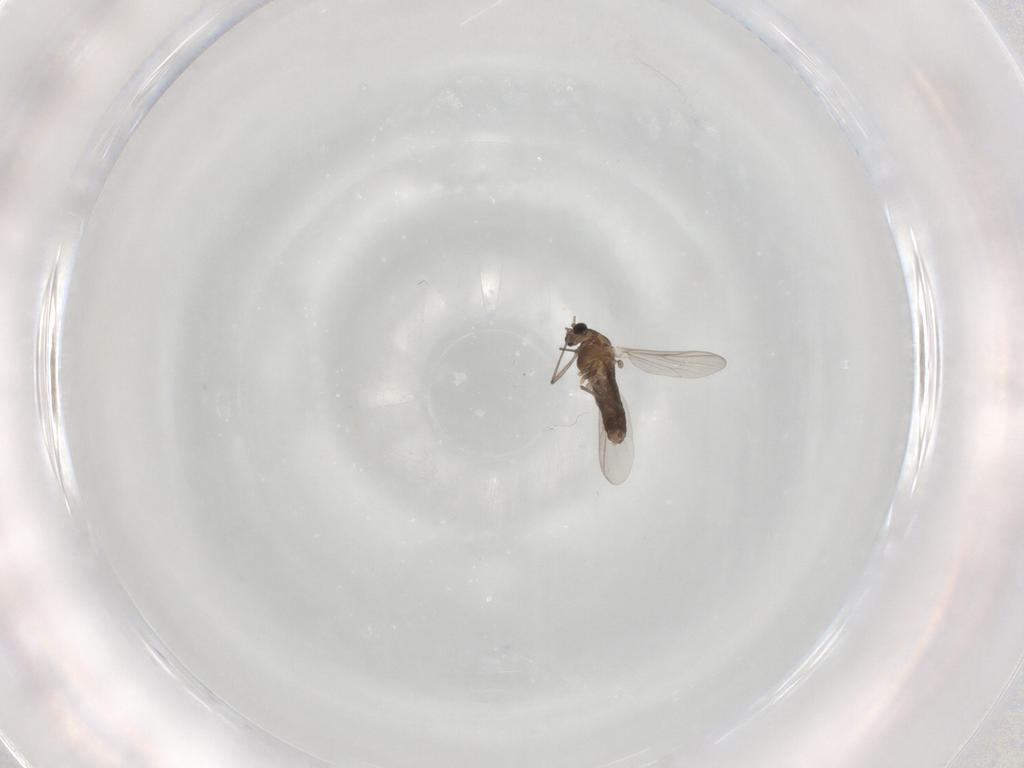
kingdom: Animalia
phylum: Arthropoda
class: Insecta
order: Diptera
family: Chironomidae
